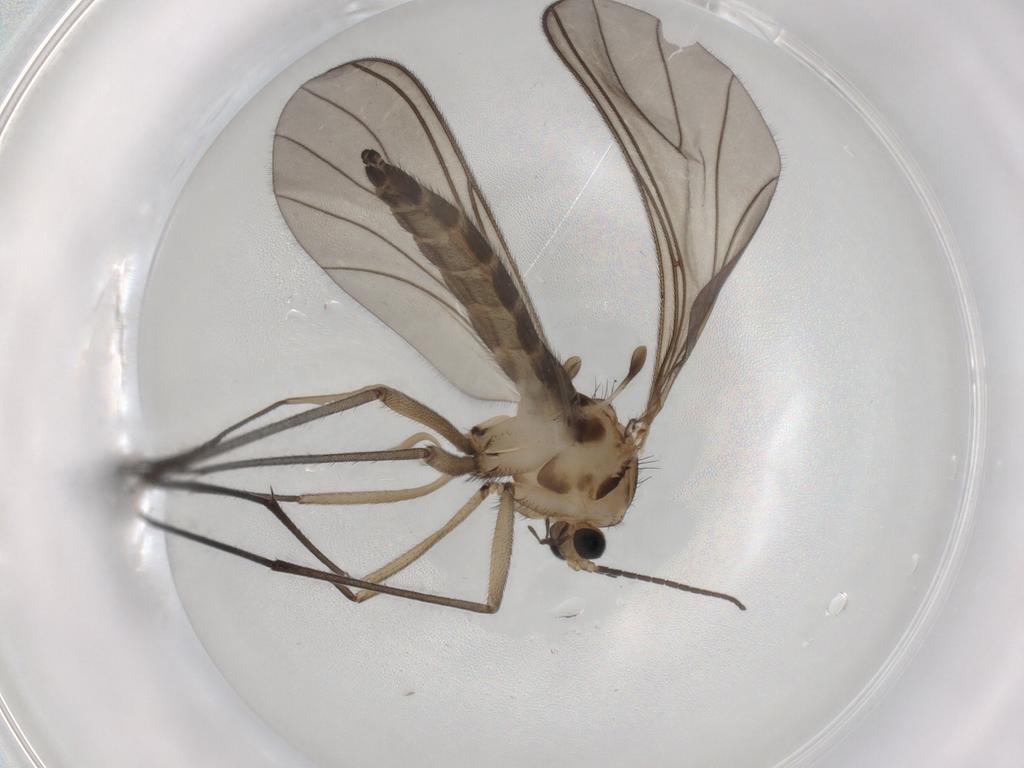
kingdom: Animalia
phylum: Arthropoda
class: Insecta
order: Diptera
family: Sciaridae
